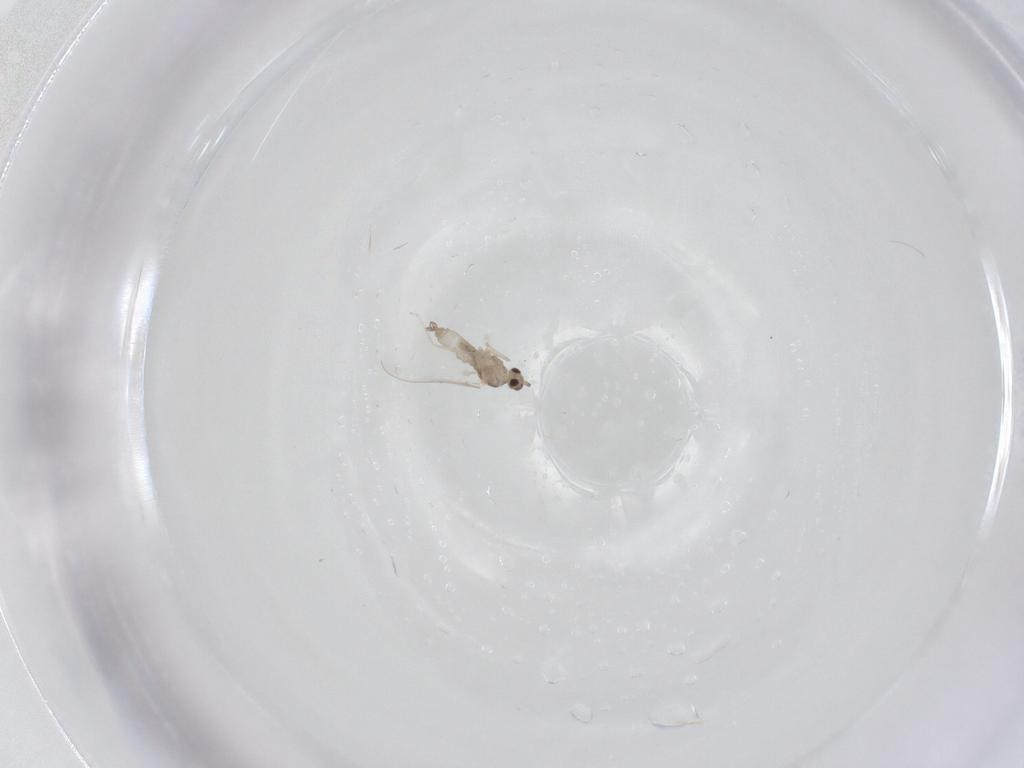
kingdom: Animalia
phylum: Arthropoda
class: Insecta
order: Diptera
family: Cecidomyiidae
